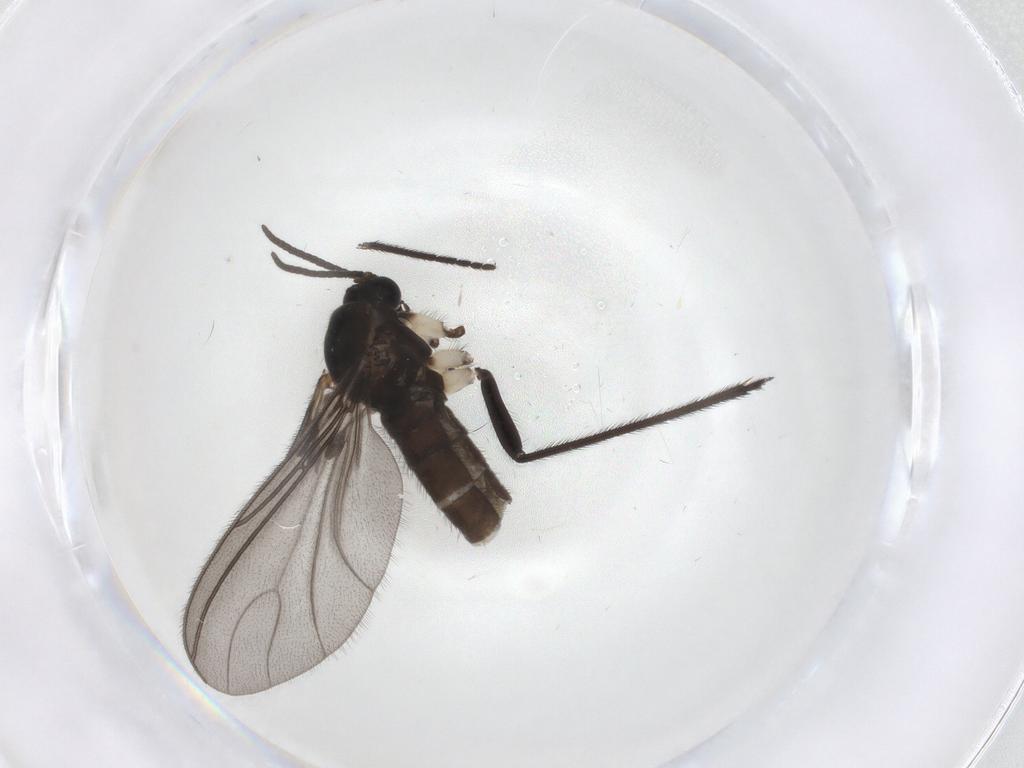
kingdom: Animalia
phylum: Arthropoda
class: Insecta
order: Diptera
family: Sciaridae
